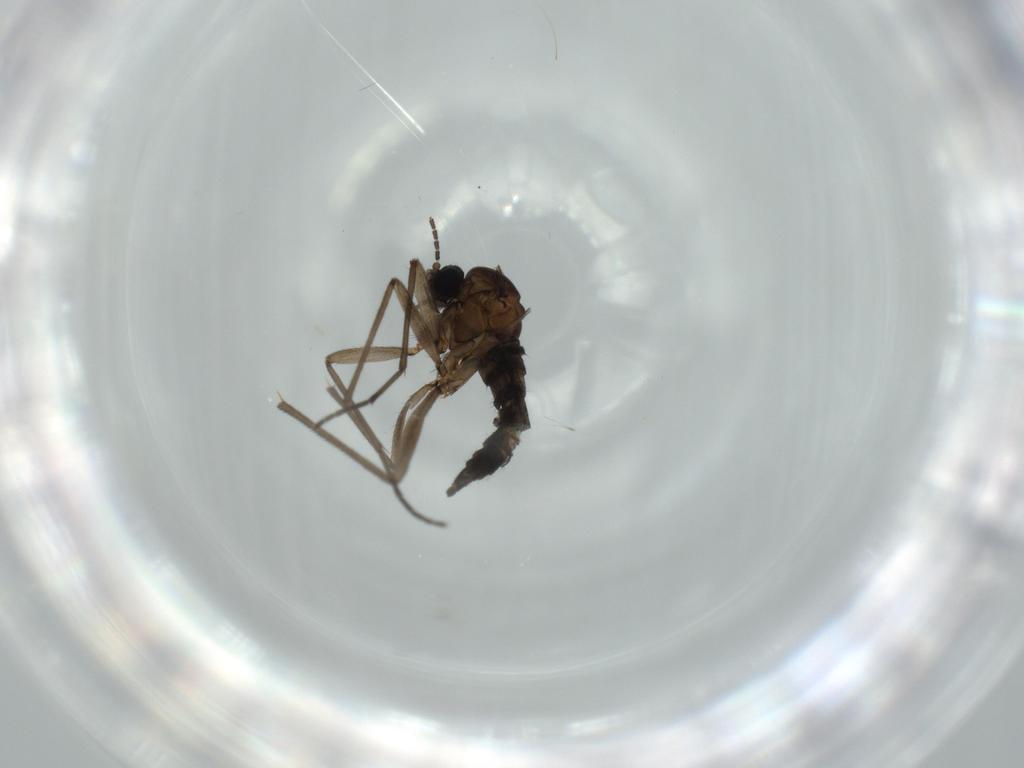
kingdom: Animalia
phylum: Arthropoda
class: Insecta
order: Diptera
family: Sciaridae
